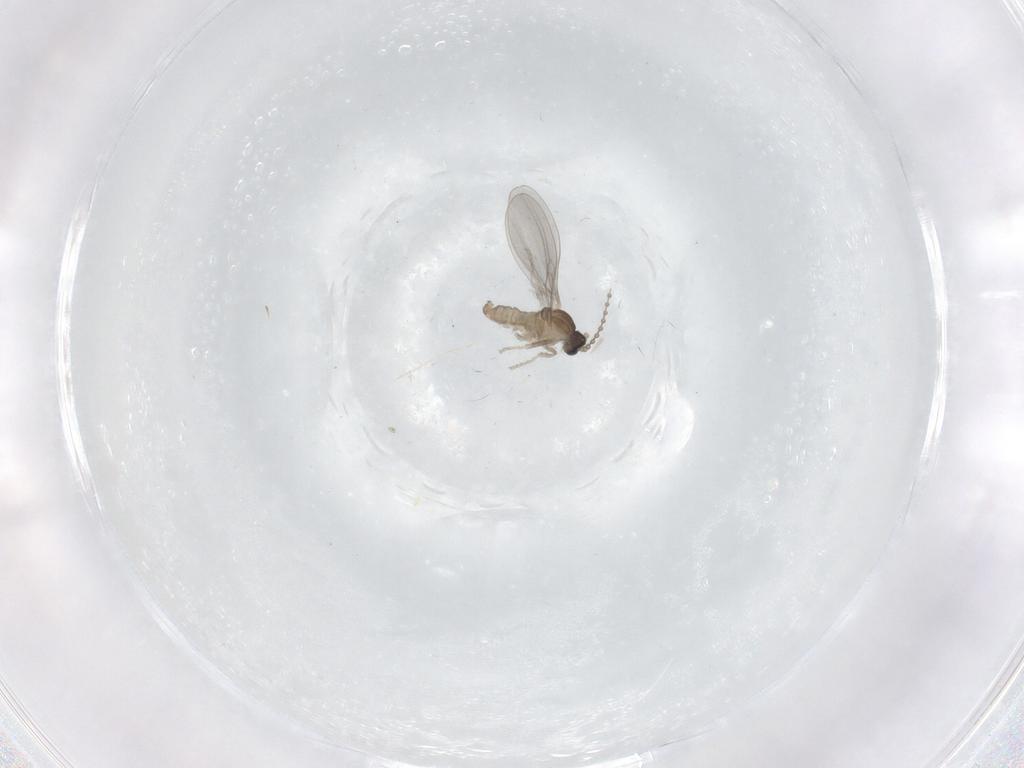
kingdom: Animalia
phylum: Arthropoda
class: Insecta
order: Diptera
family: Cecidomyiidae
